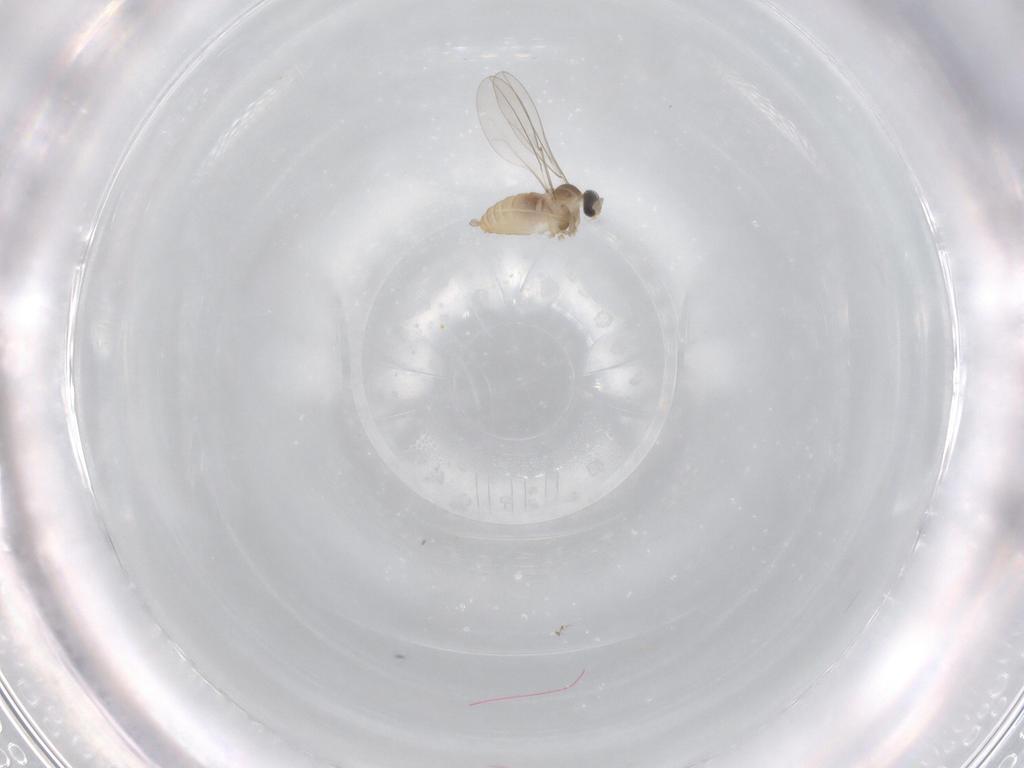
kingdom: Animalia
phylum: Arthropoda
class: Insecta
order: Diptera
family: Cecidomyiidae
